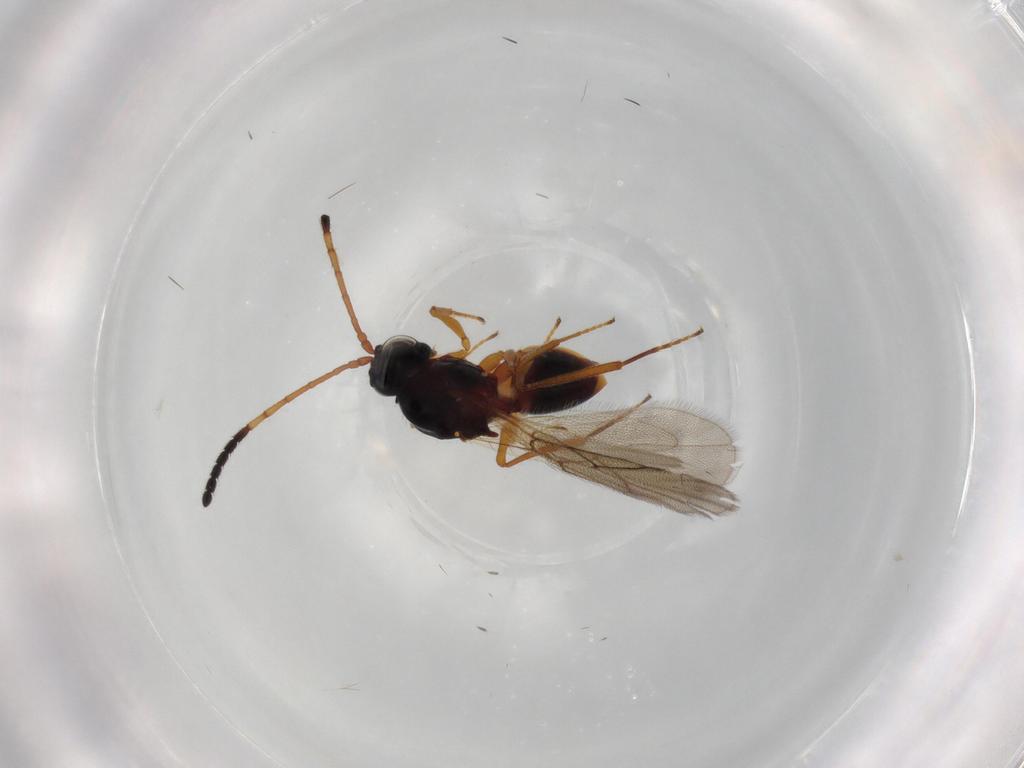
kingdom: Animalia
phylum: Arthropoda
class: Insecta
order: Hymenoptera
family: Figitidae
